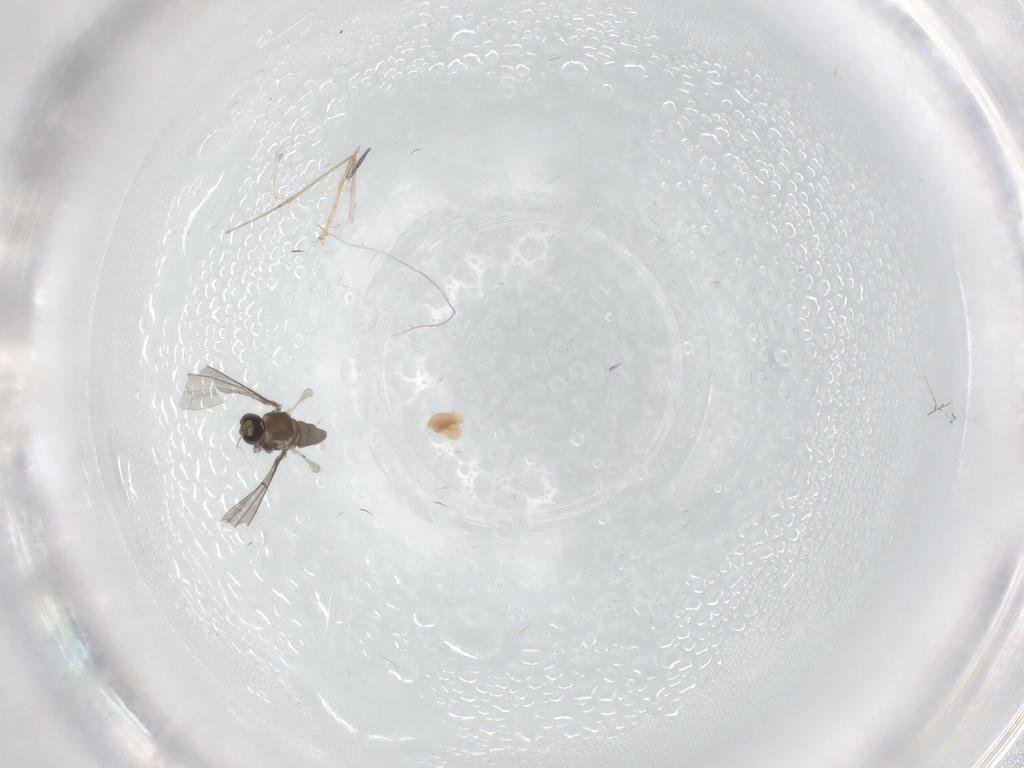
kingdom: Animalia
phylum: Arthropoda
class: Insecta
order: Diptera
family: Cecidomyiidae
